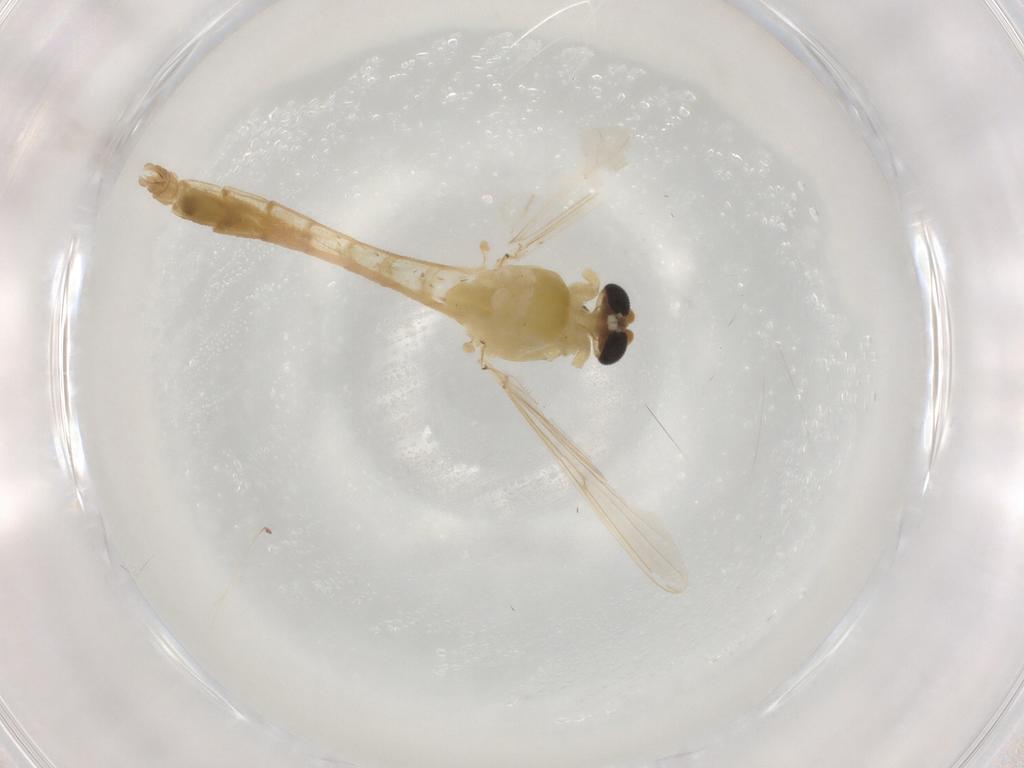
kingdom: Animalia
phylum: Arthropoda
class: Insecta
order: Diptera
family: Chironomidae
